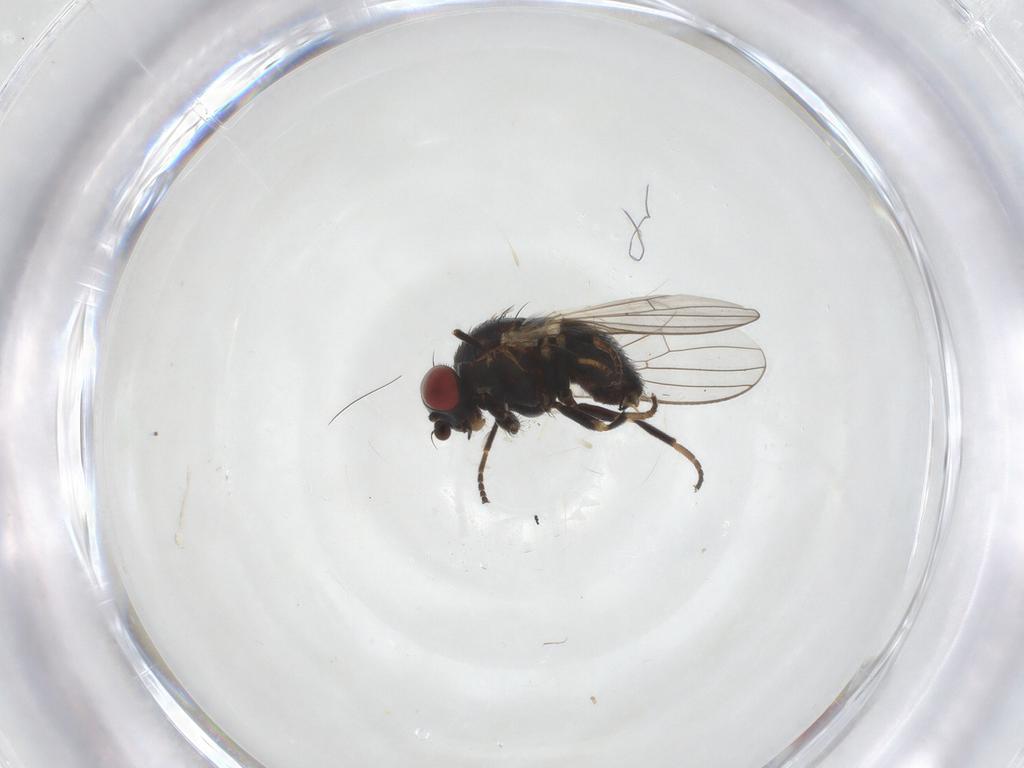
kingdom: Animalia
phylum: Arthropoda
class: Insecta
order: Diptera
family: Chamaemyiidae
